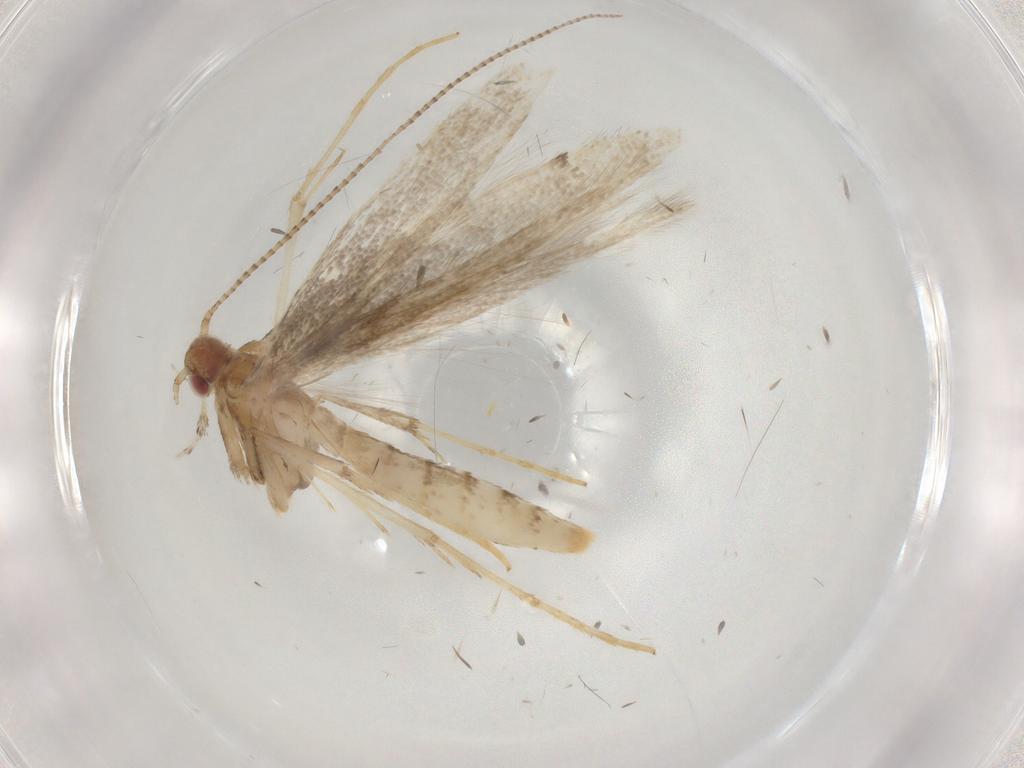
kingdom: Animalia
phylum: Arthropoda
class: Insecta
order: Lepidoptera
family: Gracillariidae
